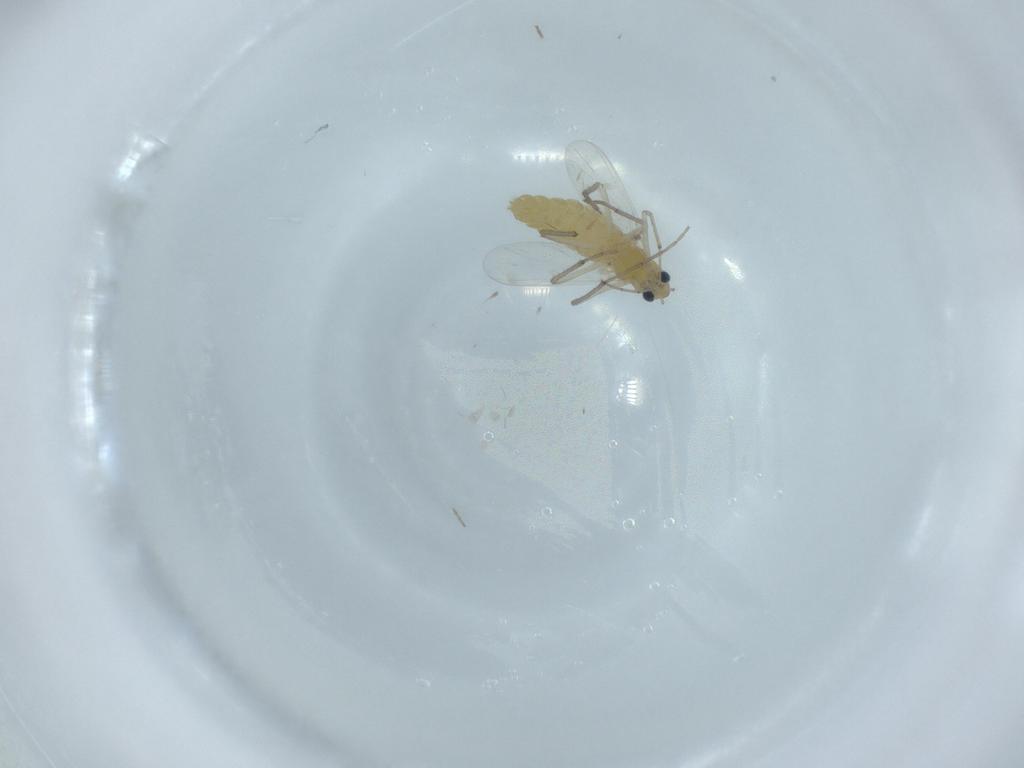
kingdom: Animalia
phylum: Arthropoda
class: Insecta
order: Diptera
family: Chironomidae
